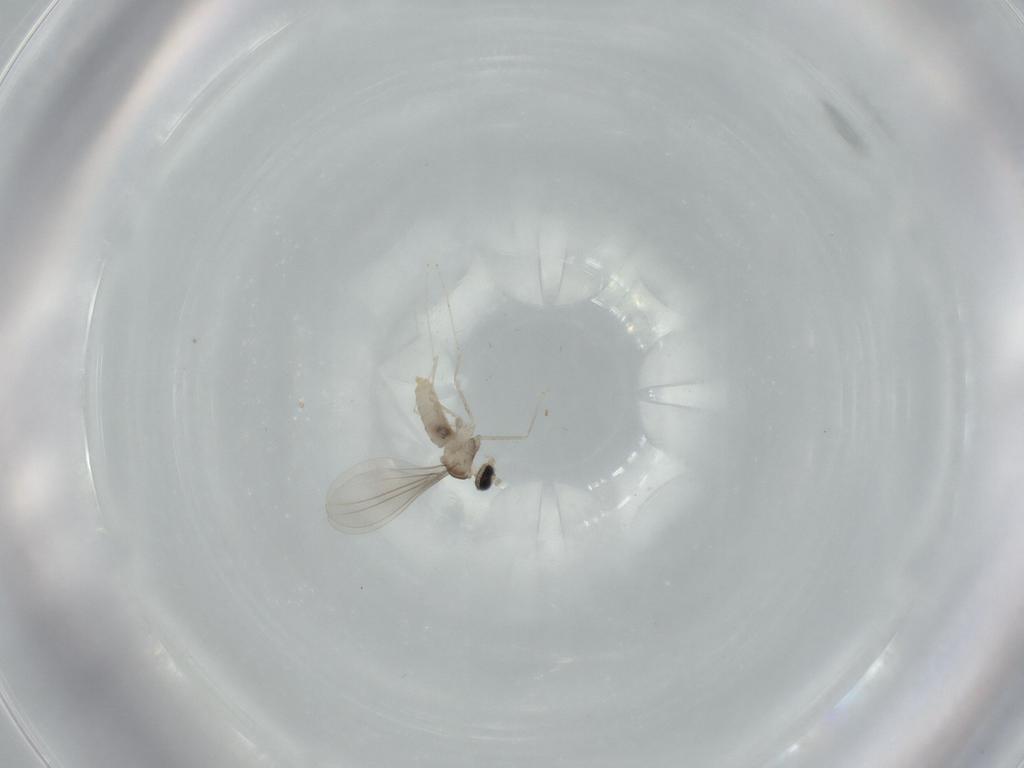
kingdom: Animalia
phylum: Arthropoda
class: Insecta
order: Diptera
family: Cecidomyiidae
